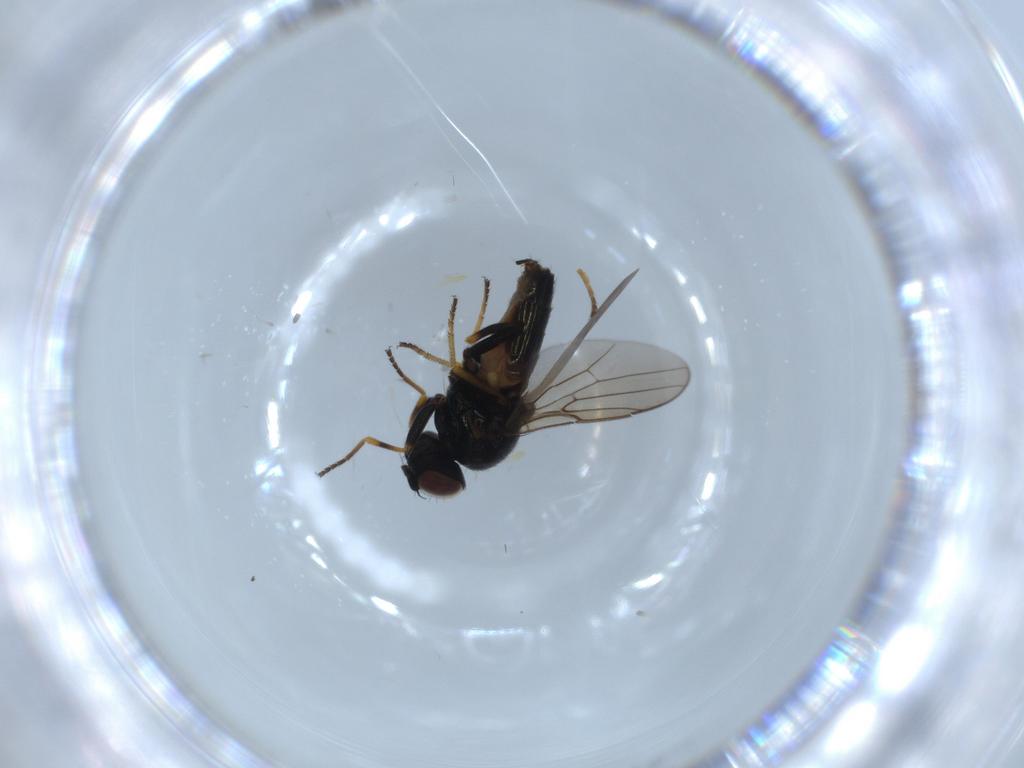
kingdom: Animalia
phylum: Arthropoda
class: Insecta
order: Diptera
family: Chloropidae
